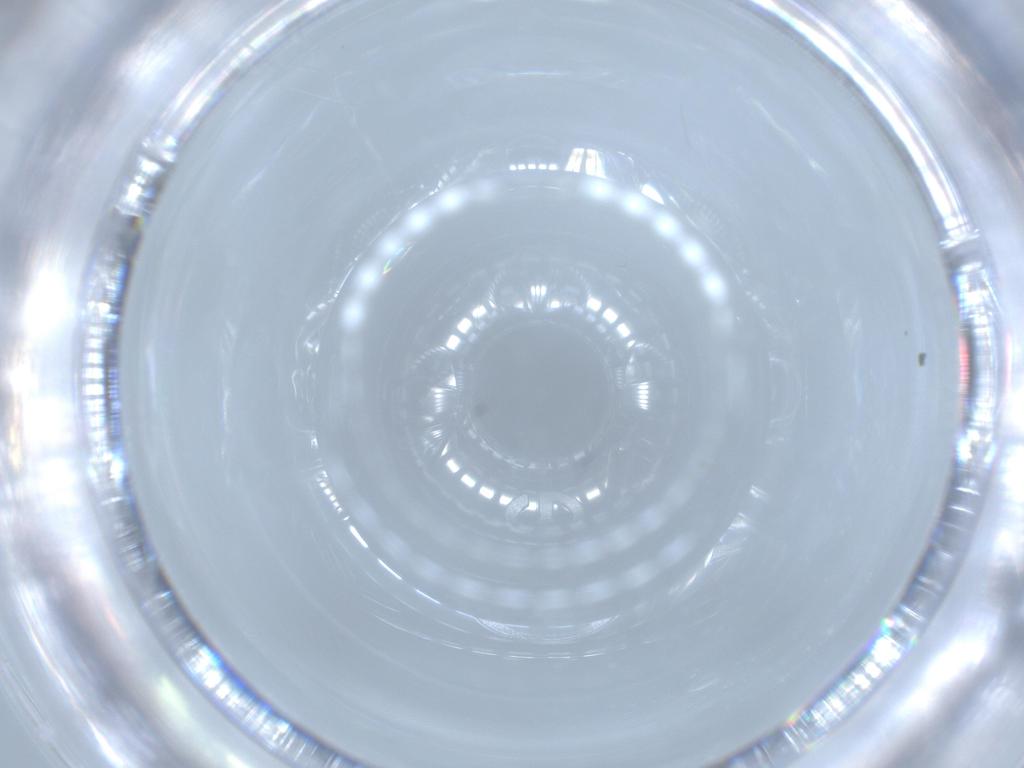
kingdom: Animalia
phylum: Arthropoda
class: Insecta
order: Diptera
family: Cecidomyiidae
